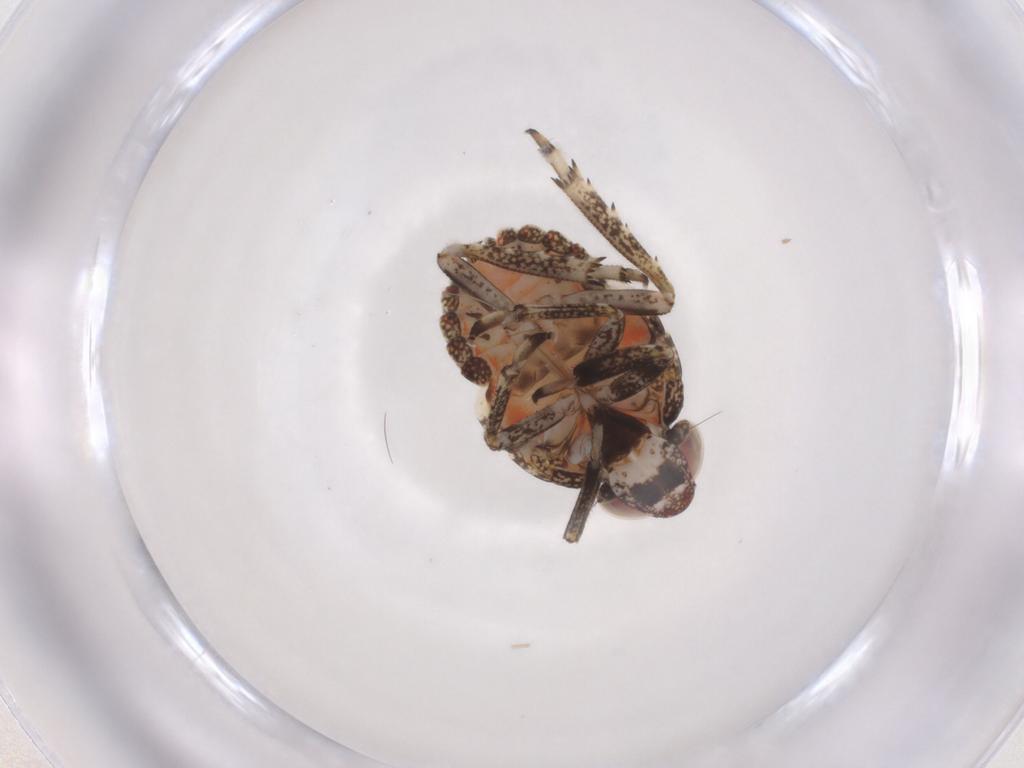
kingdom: Animalia
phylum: Arthropoda
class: Insecta
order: Hemiptera
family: Issidae
